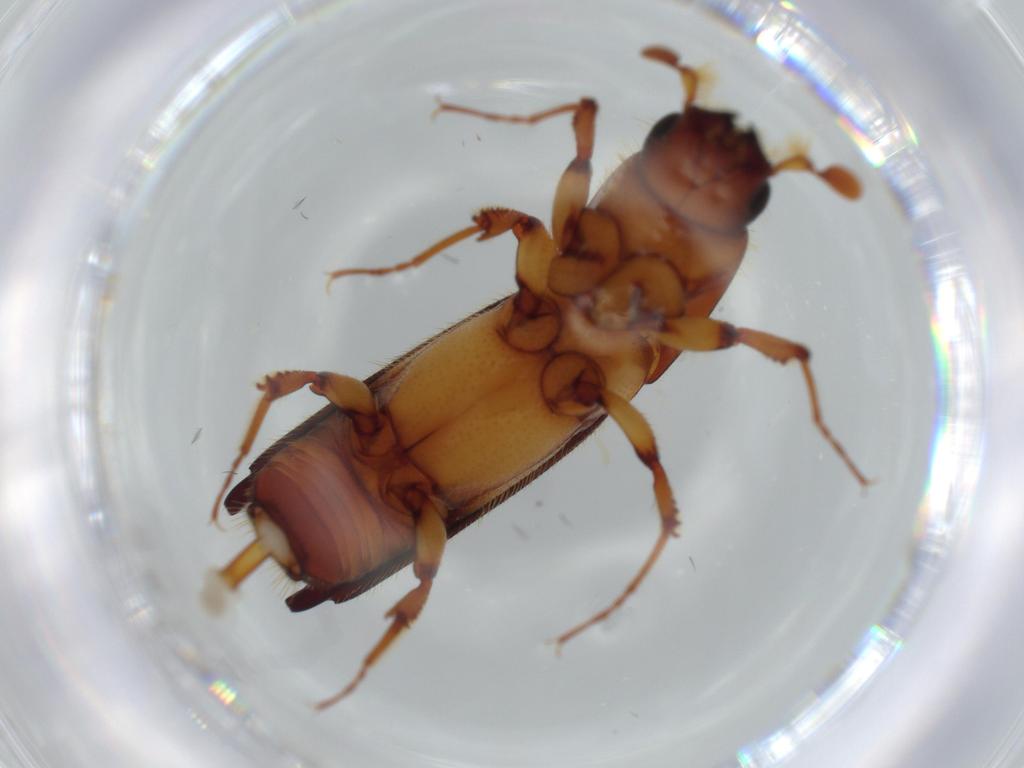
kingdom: Animalia
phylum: Arthropoda
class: Insecta
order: Coleoptera
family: Curculionidae
